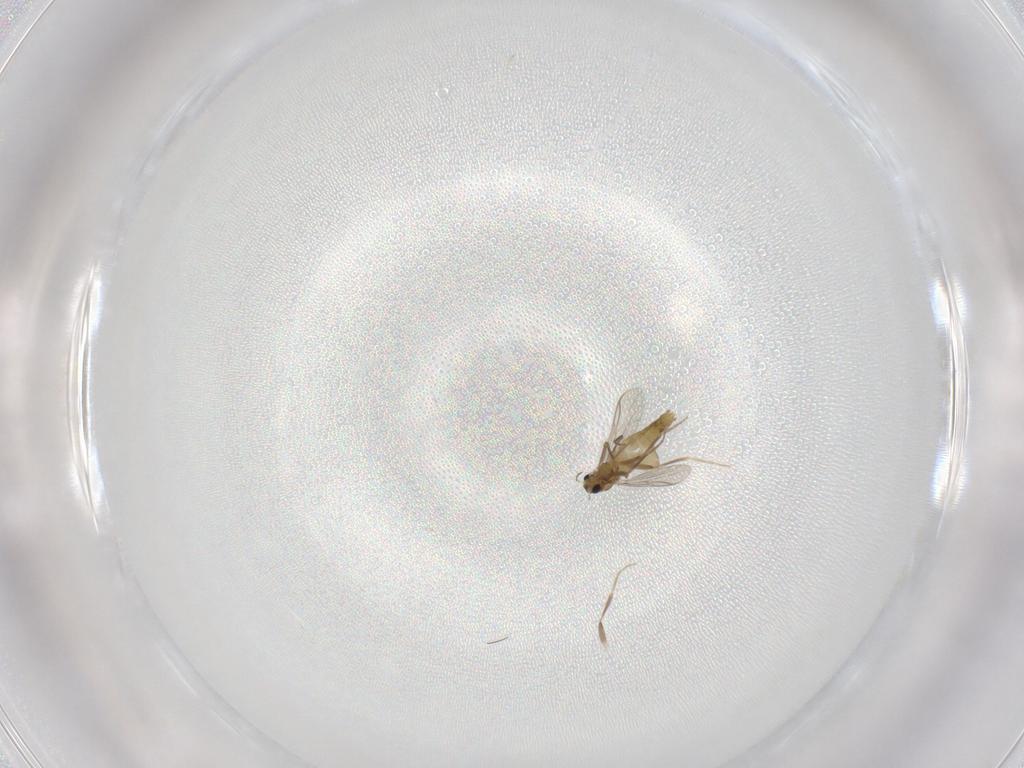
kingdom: Animalia
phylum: Arthropoda
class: Insecta
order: Diptera
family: Chironomidae
